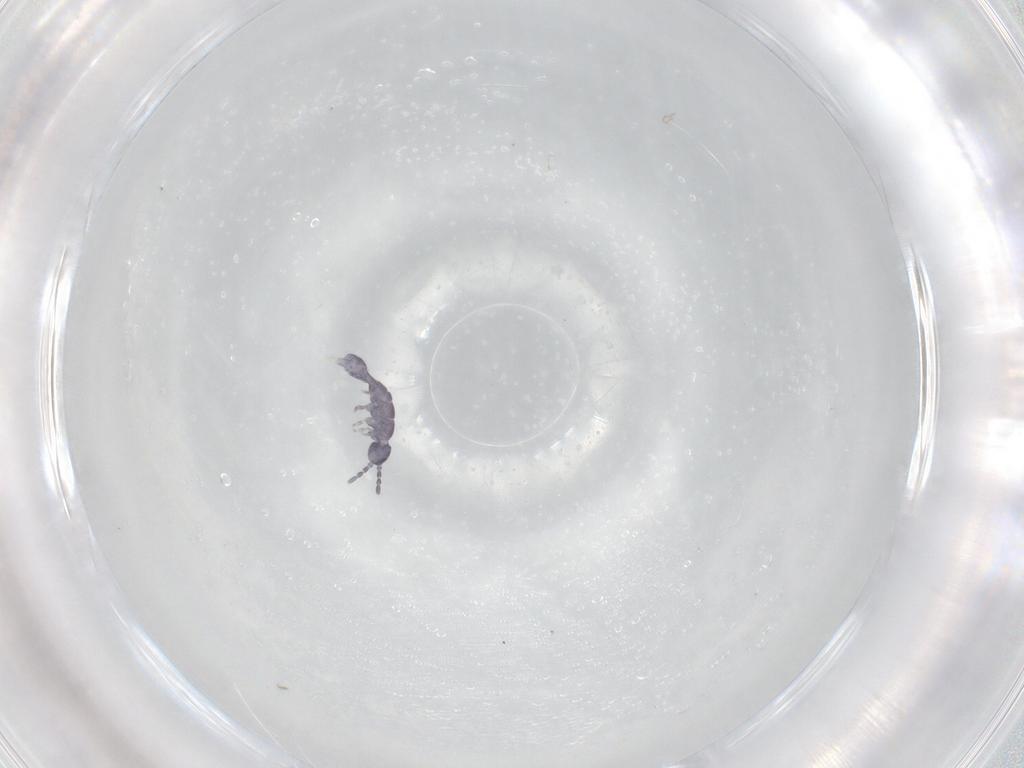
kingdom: Animalia
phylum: Arthropoda
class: Collembola
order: Entomobryomorpha
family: Isotomidae
